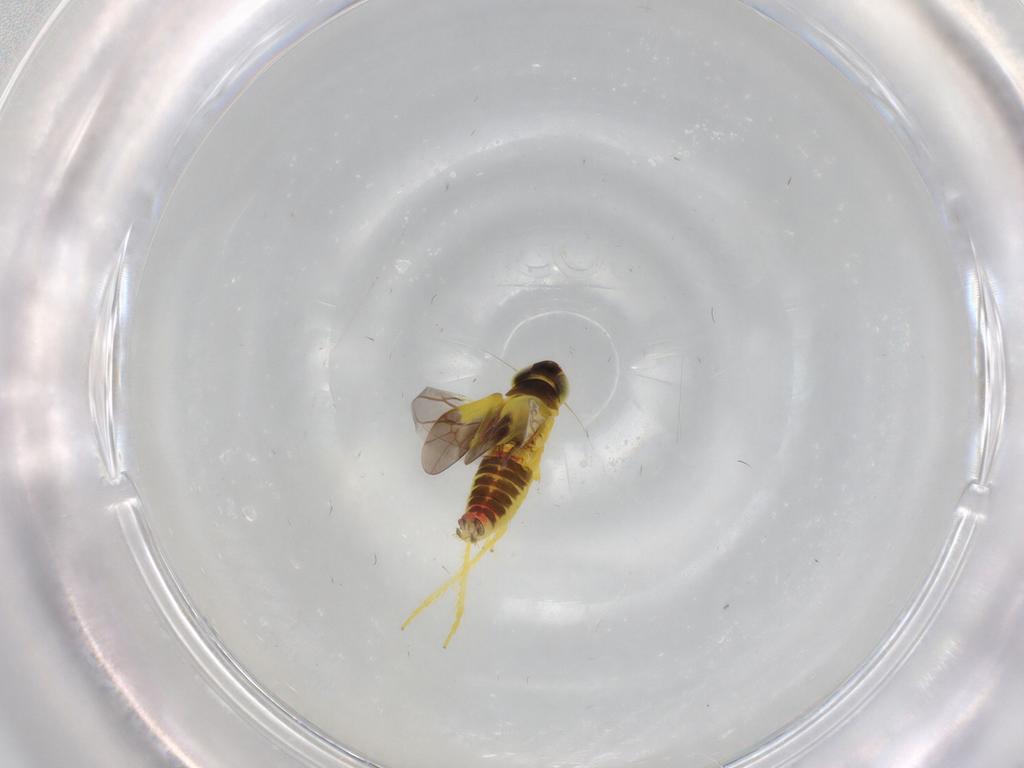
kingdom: Animalia
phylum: Arthropoda
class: Insecta
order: Hemiptera
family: Cicadellidae
